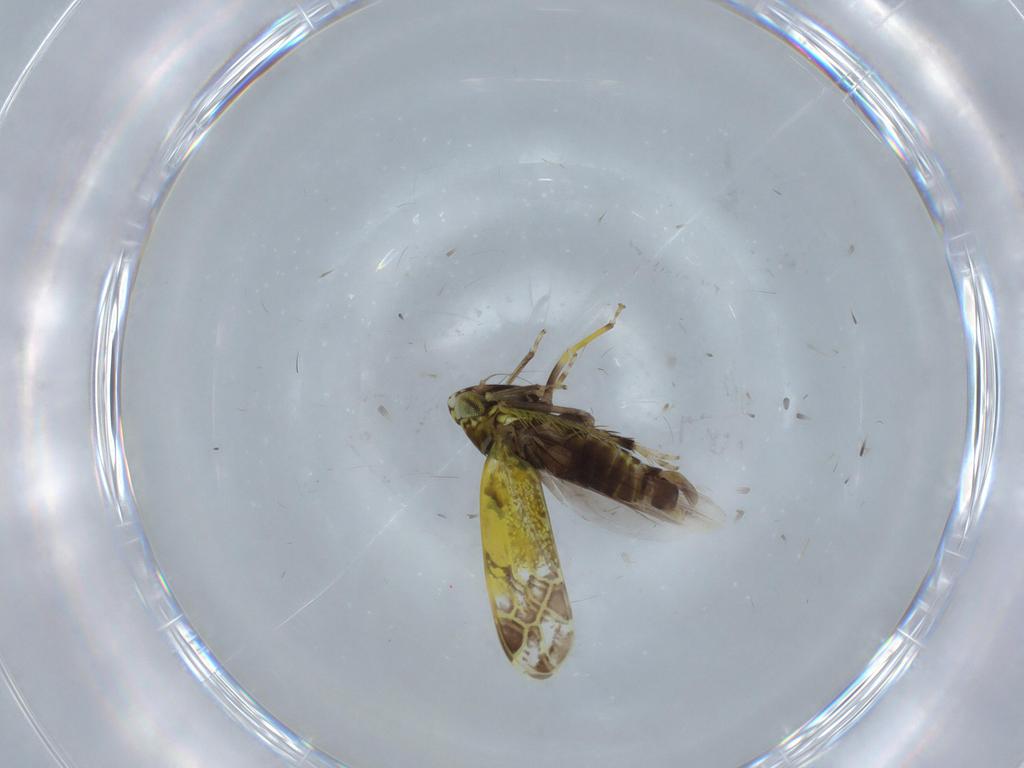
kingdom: Animalia
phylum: Arthropoda
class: Insecta
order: Hemiptera
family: Cicadellidae
